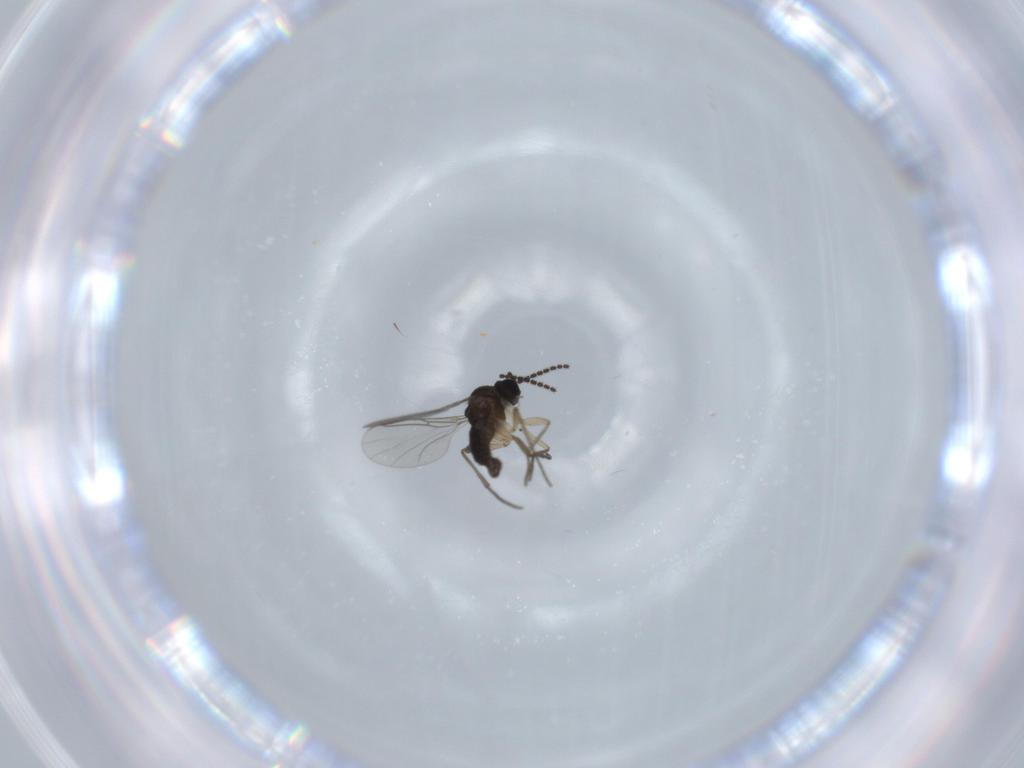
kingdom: Animalia
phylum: Arthropoda
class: Insecta
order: Diptera
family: Sciaridae
